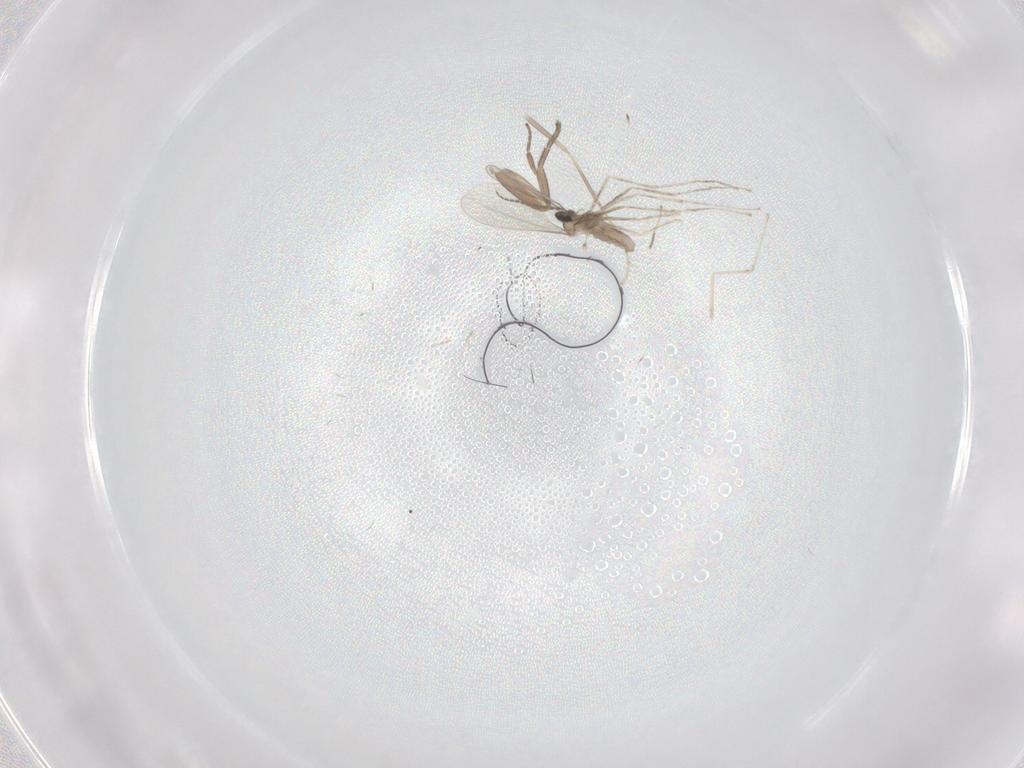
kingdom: Animalia
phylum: Arthropoda
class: Insecta
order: Diptera
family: Phoridae
